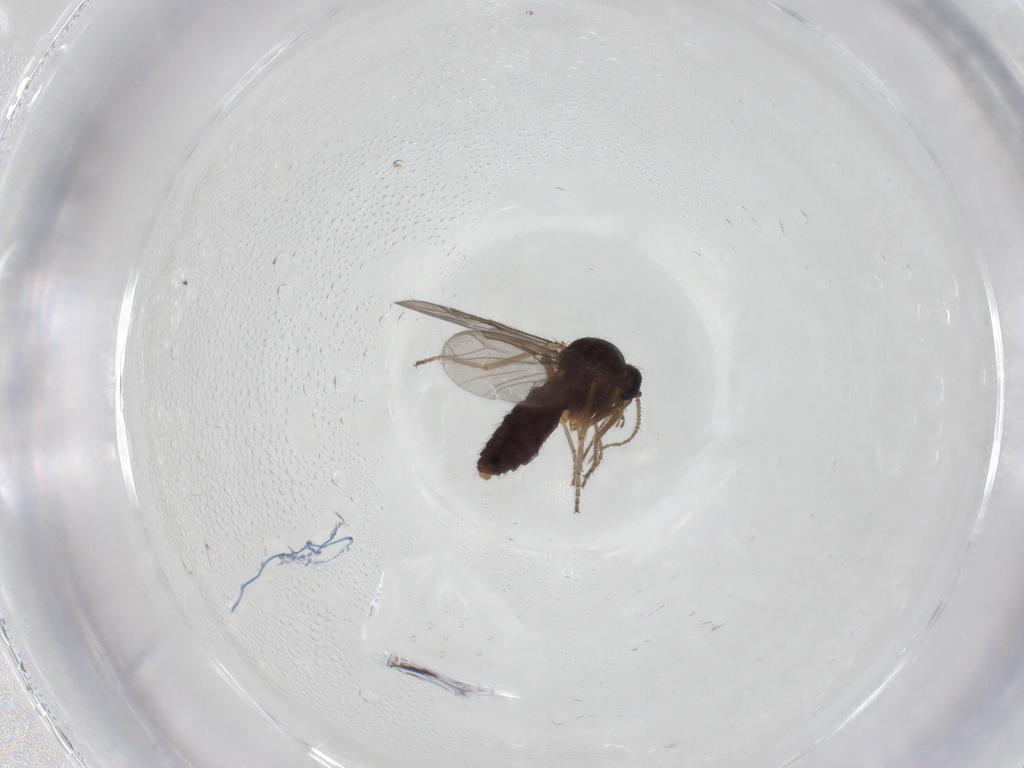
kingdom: Animalia
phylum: Arthropoda
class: Insecta
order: Diptera
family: Ceratopogonidae
